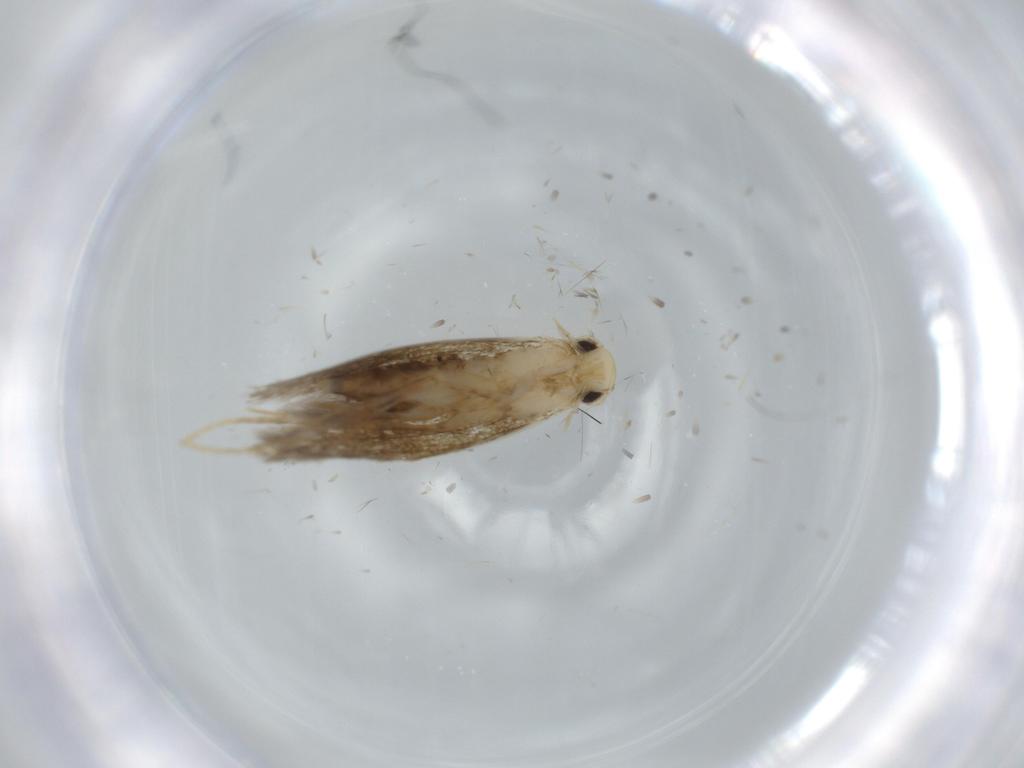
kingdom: Animalia
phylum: Arthropoda
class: Insecta
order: Lepidoptera
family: Tineidae
